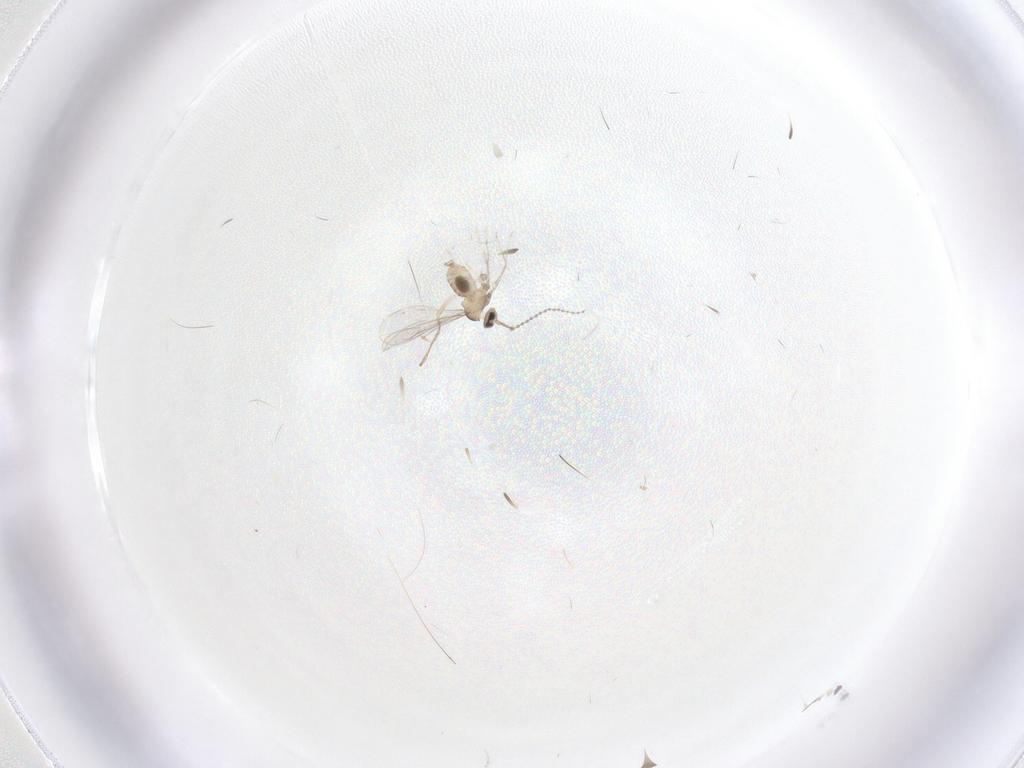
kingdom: Animalia
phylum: Arthropoda
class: Insecta
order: Diptera
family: Cecidomyiidae
